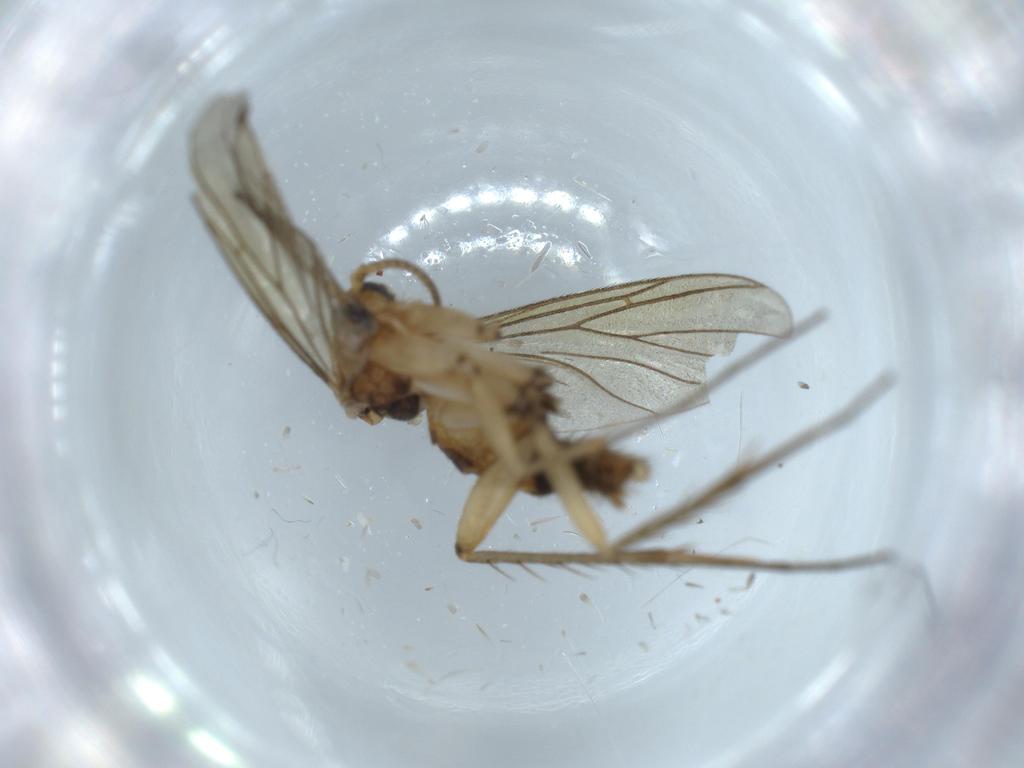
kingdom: Animalia
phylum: Arthropoda
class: Insecta
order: Diptera
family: Mycetophilidae
